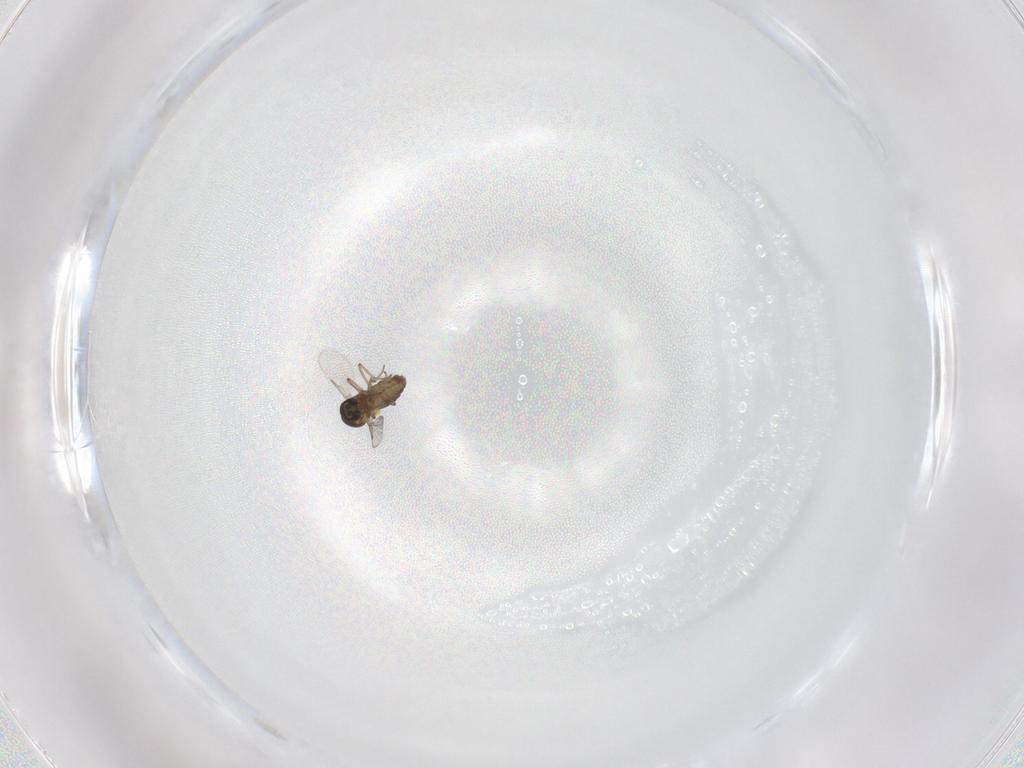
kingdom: Animalia
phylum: Arthropoda
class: Insecta
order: Diptera
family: Ceratopogonidae
